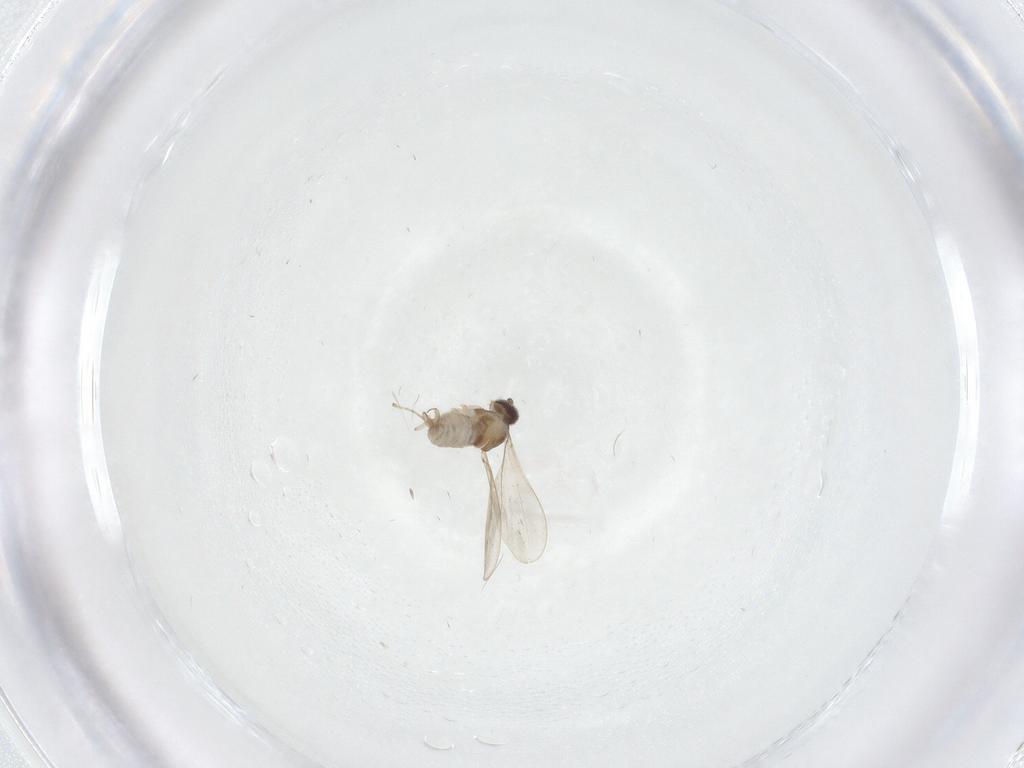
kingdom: Animalia
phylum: Arthropoda
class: Insecta
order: Diptera
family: Cecidomyiidae
